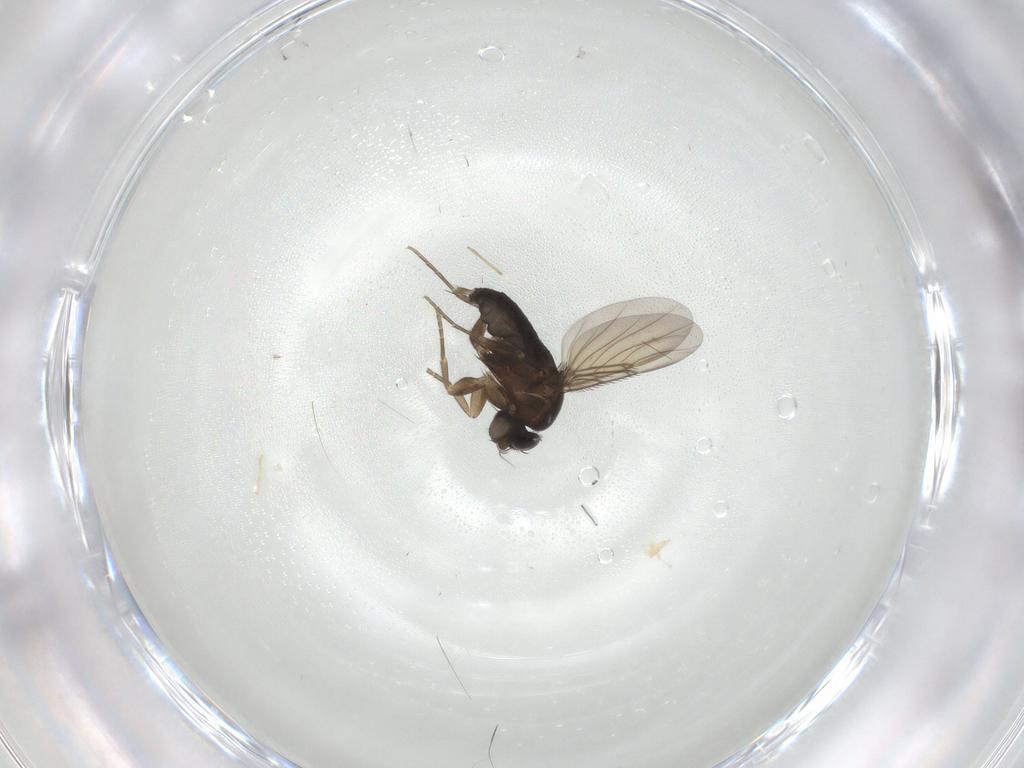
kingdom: Animalia
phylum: Arthropoda
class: Insecta
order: Diptera
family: Phoridae
